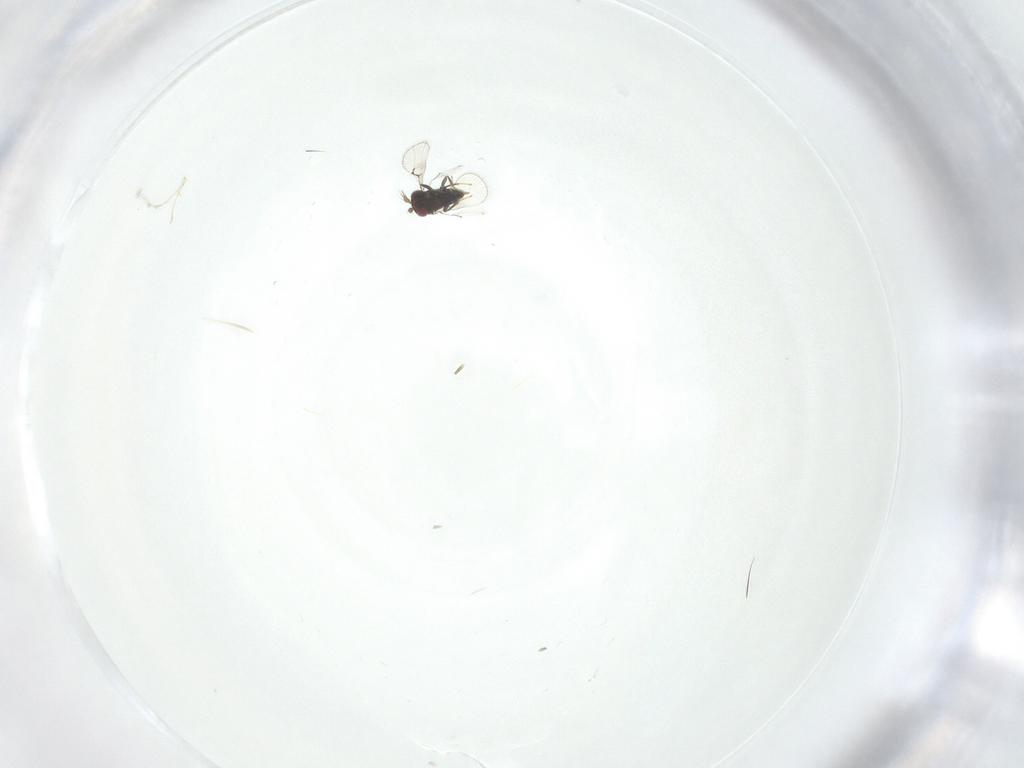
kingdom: Animalia
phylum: Arthropoda
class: Insecta
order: Hymenoptera
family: Trichogrammatidae
